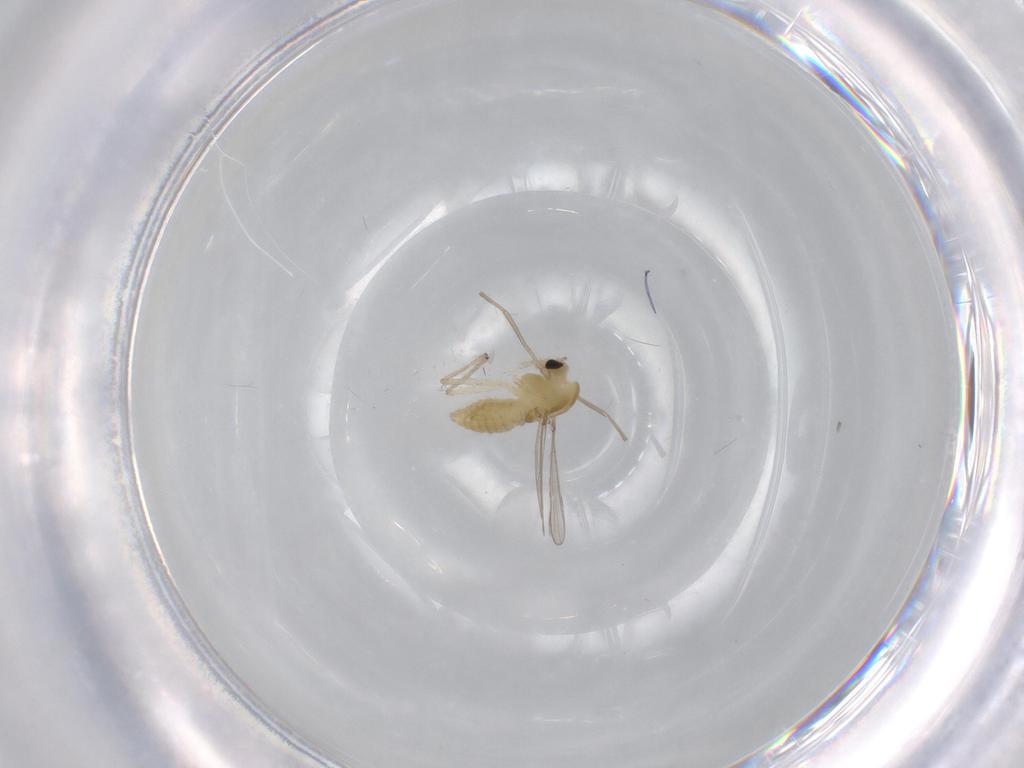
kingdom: Animalia
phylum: Arthropoda
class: Insecta
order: Diptera
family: Chironomidae
